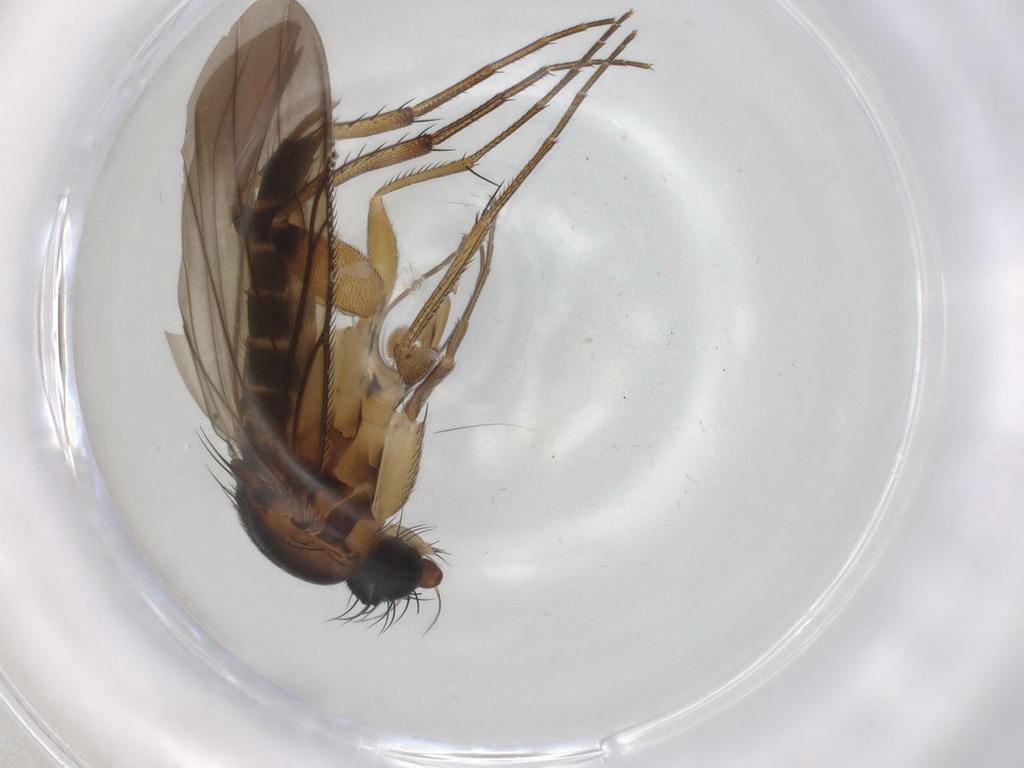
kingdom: Animalia
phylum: Arthropoda
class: Insecta
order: Diptera
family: Phoridae
